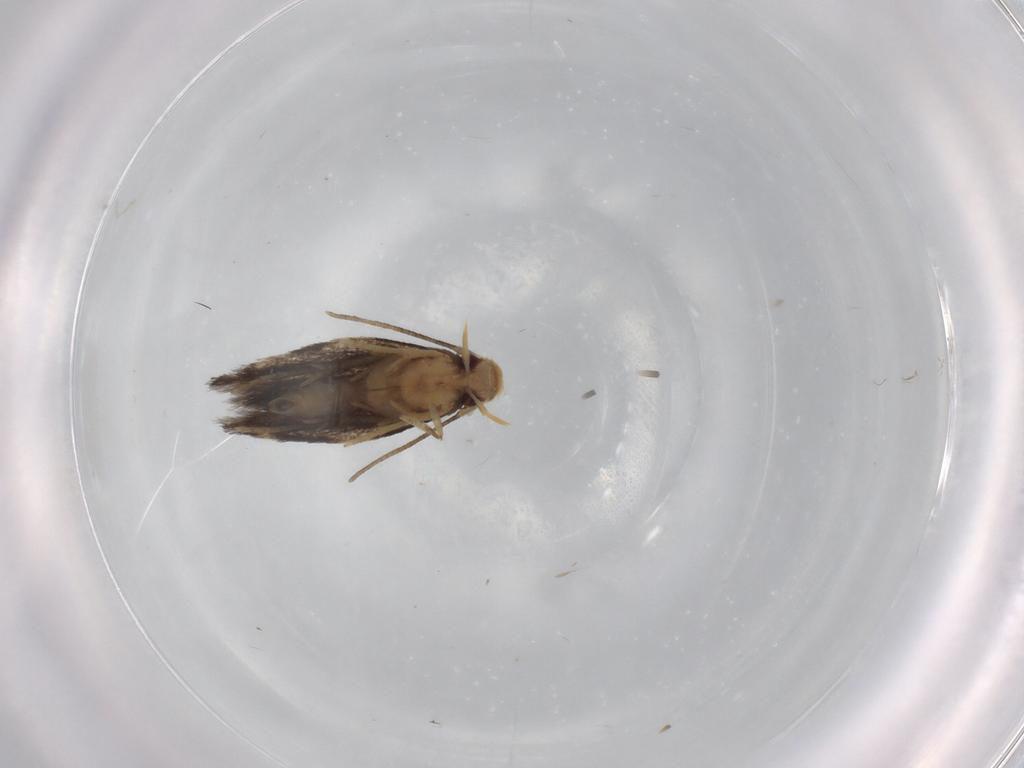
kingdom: Animalia
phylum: Arthropoda
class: Insecta
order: Lepidoptera
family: Gelechiidae
